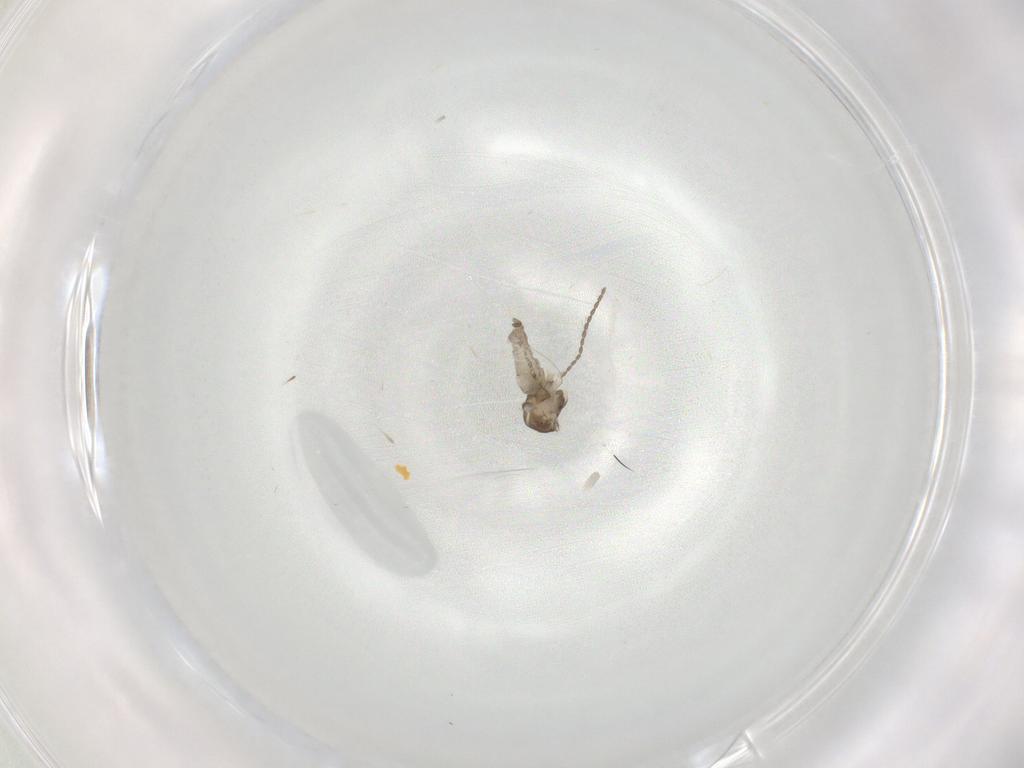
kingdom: Animalia
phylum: Arthropoda
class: Insecta
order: Diptera
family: Cecidomyiidae
